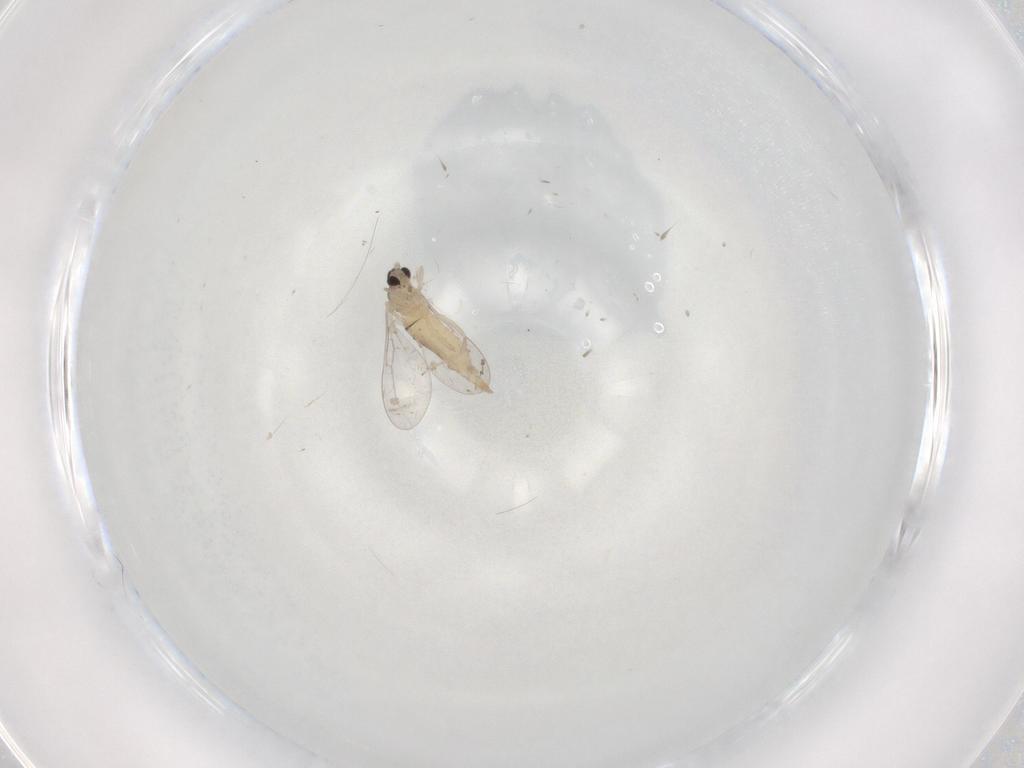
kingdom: Animalia
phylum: Arthropoda
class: Insecta
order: Diptera
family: Cecidomyiidae
